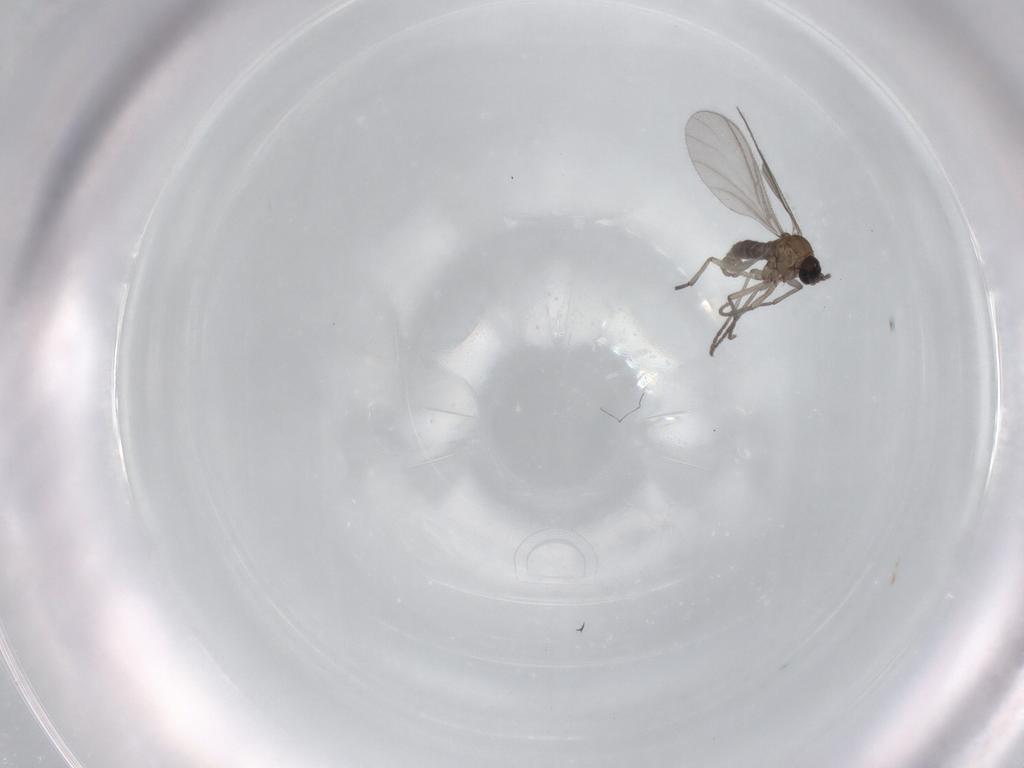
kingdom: Animalia
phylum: Arthropoda
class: Insecta
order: Diptera
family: Sciaridae
